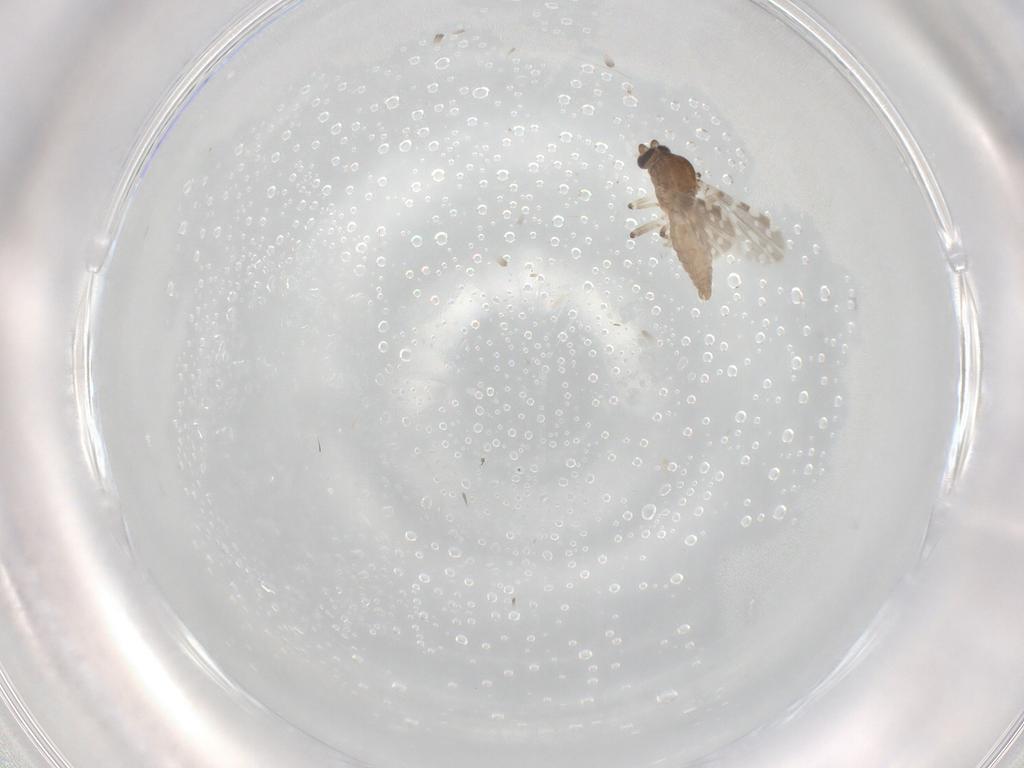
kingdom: Animalia
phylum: Arthropoda
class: Insecta
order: Diptera
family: Ceratopogonidae
